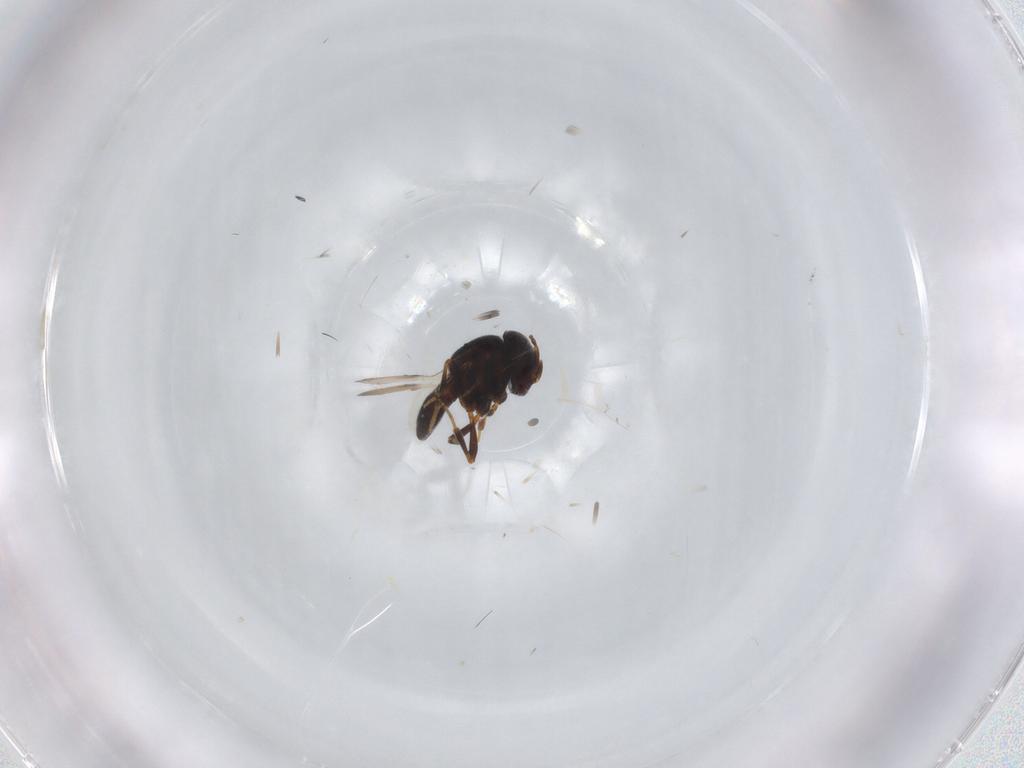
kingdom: Animalia
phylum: Arthropoda
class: Insecta
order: Hymenoptera
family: Scelionidae
